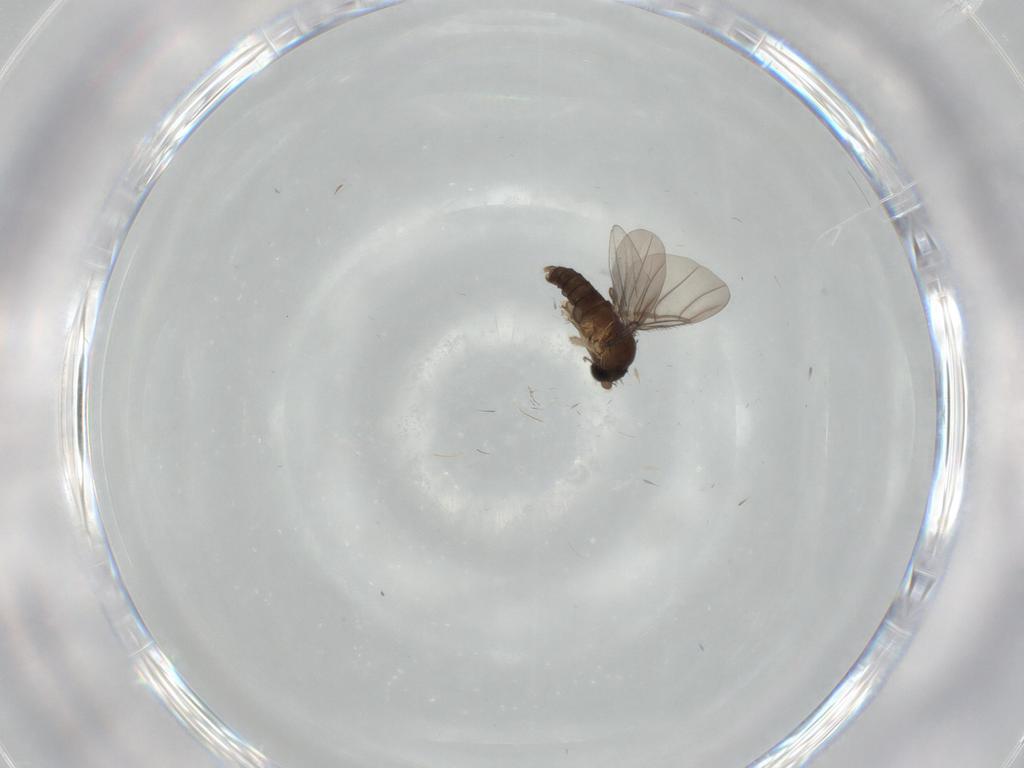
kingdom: Animalia
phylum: Arthropoda
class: Insecta
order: Diptera
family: Cecidomyiidae
